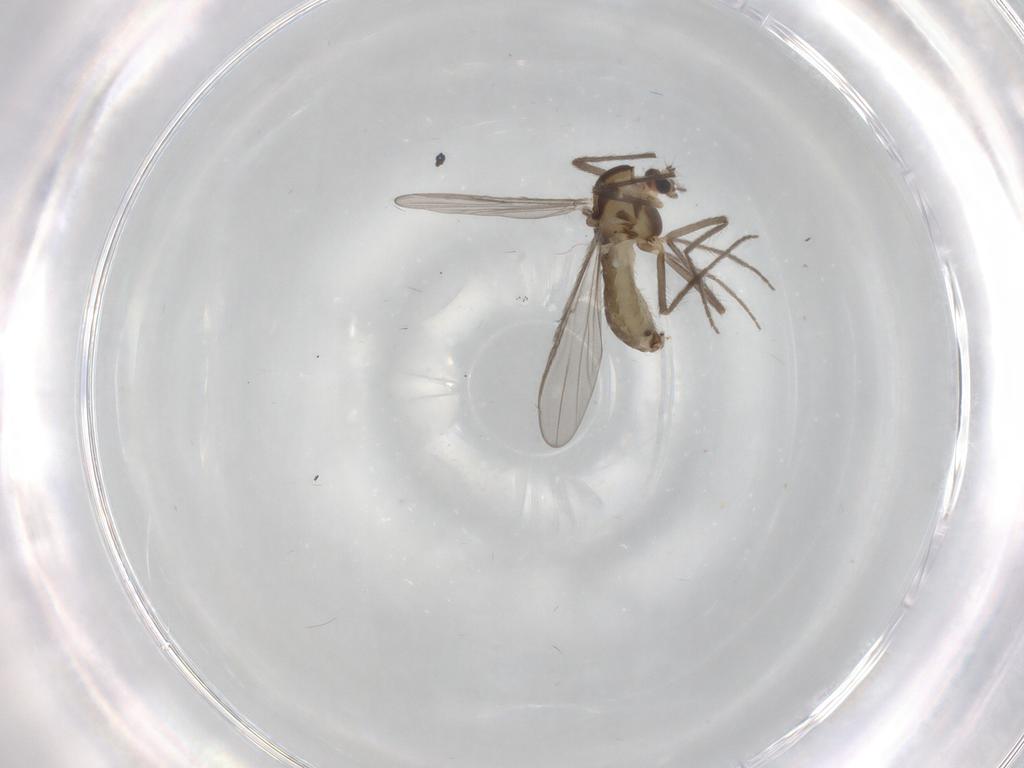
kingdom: Animalia
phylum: Arthropoda
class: Insecta
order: Diptera
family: Chironomidae
